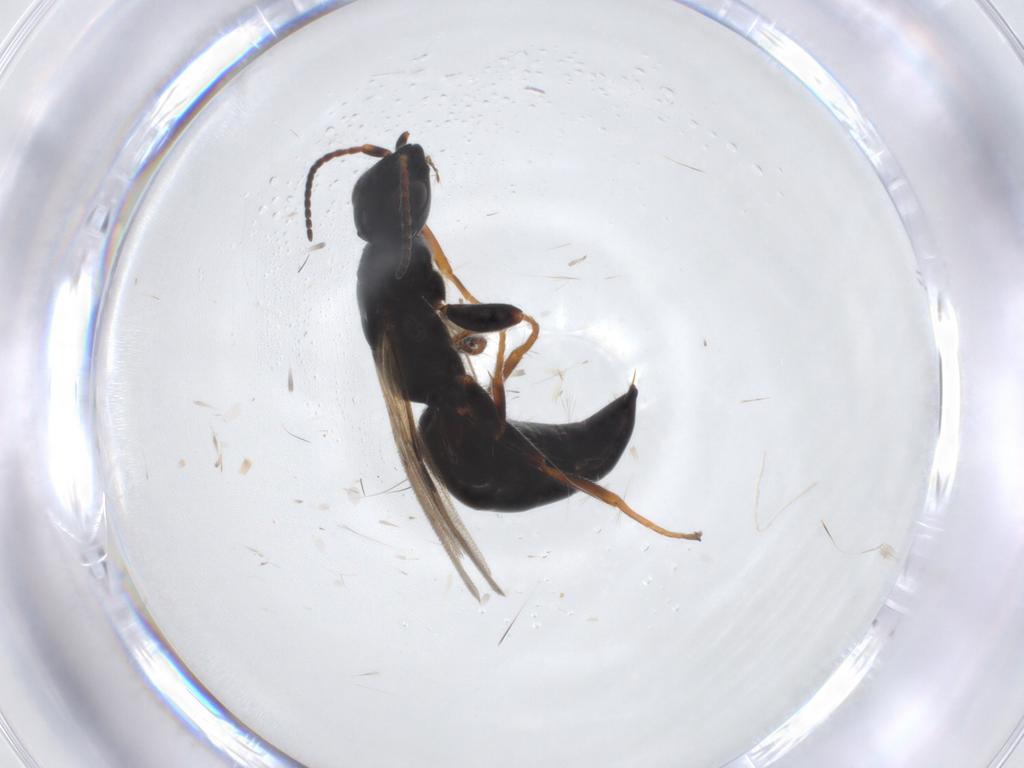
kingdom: Animalia
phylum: Arthropoda
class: Insecta
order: Hymenoptera
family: Bethylidae
